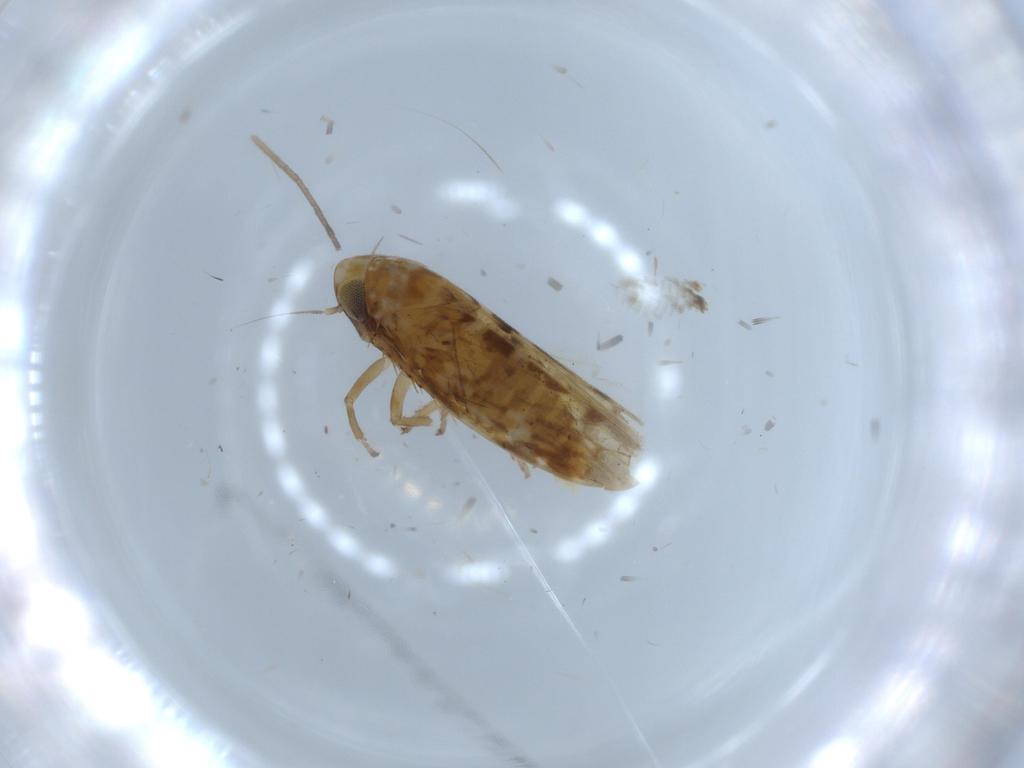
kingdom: Animalia
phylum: Arthropoda
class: Insecta
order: Hemiptera
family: Cicadellidae
